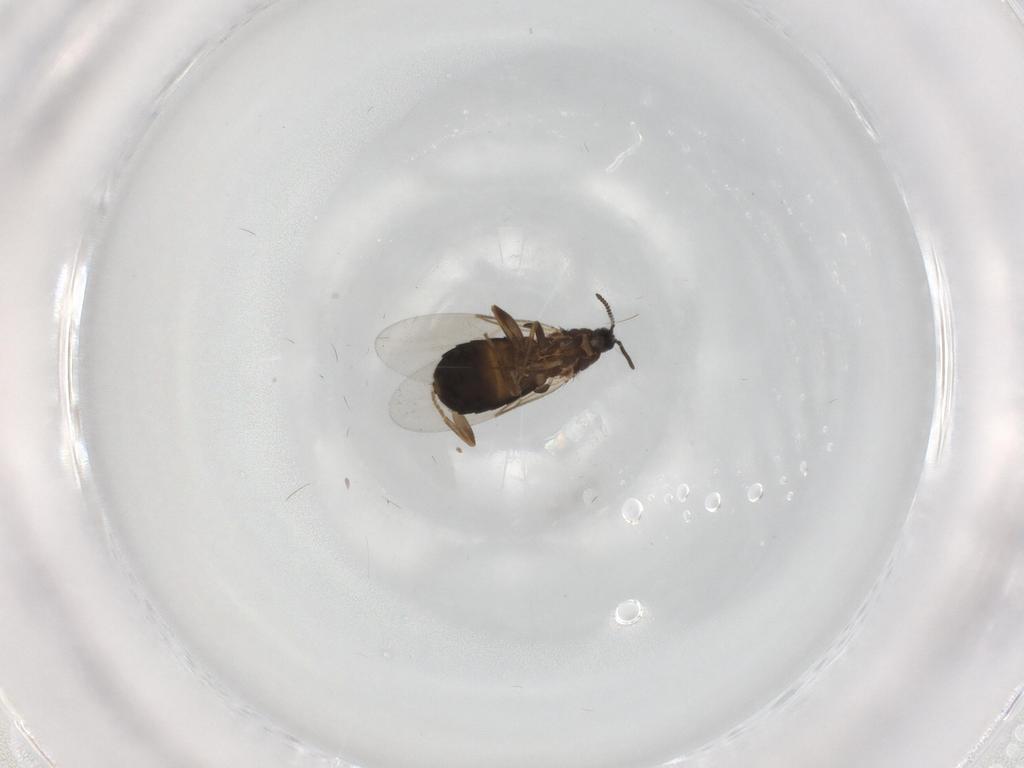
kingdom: Animalia
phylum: Arthropoda
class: Insecta
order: Diptera
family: Scatopsidae
